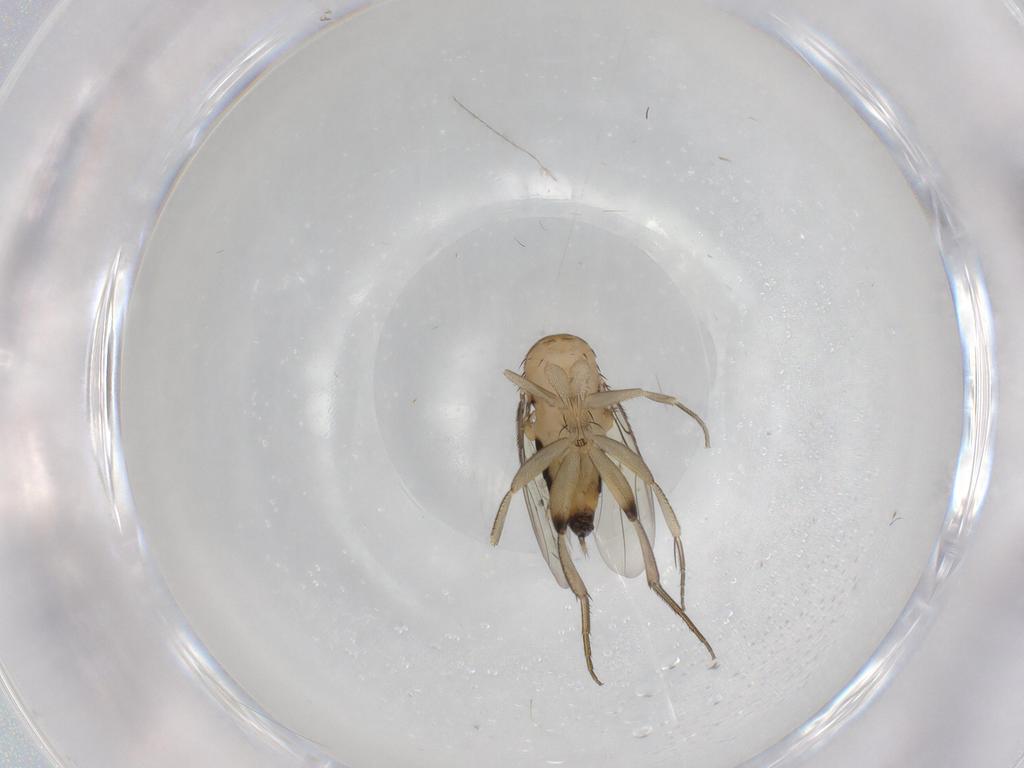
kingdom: Animalia
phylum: Arthropoda
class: Insecta
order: Diptera
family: Phoridae
